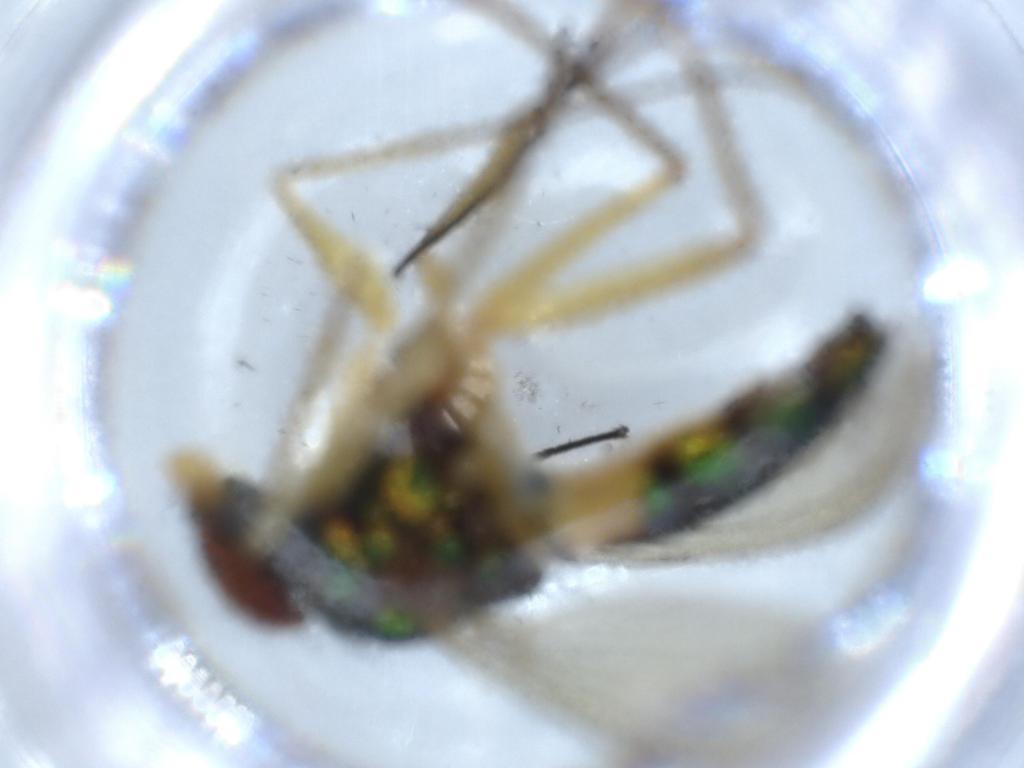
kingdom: Animalia
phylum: Arthropoda
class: Insecta
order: Diptera
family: Dolichopodidae
